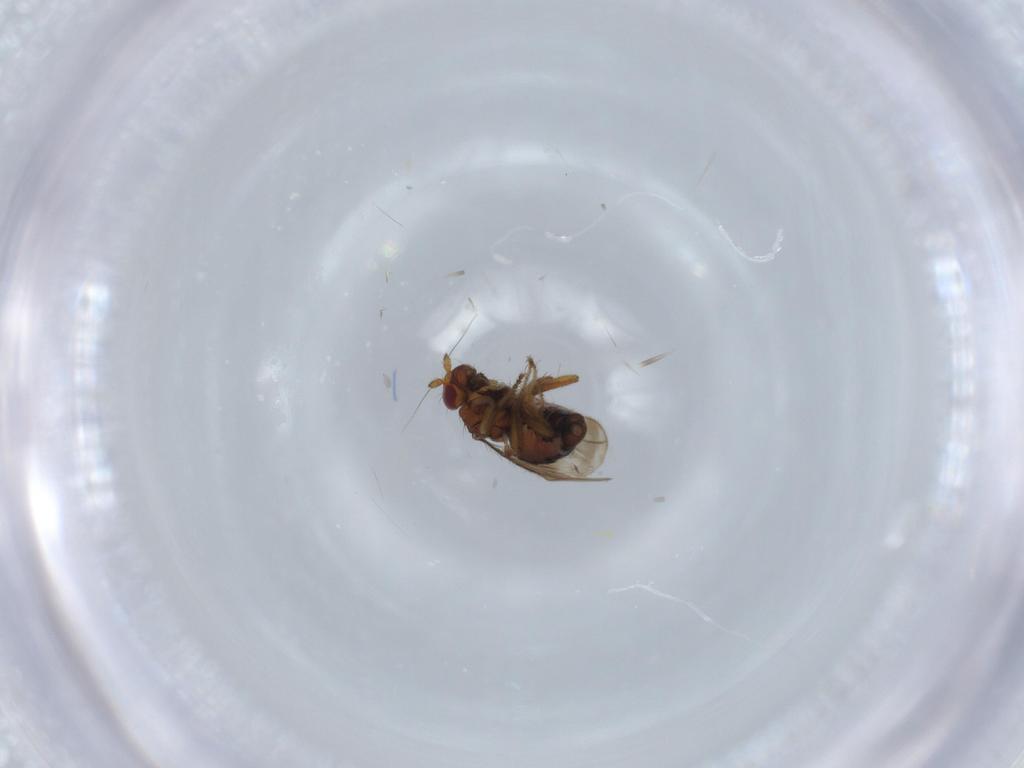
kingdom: Animalia
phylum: Arthropoda
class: Insecta
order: Diptera
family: Sphaeroceridae
